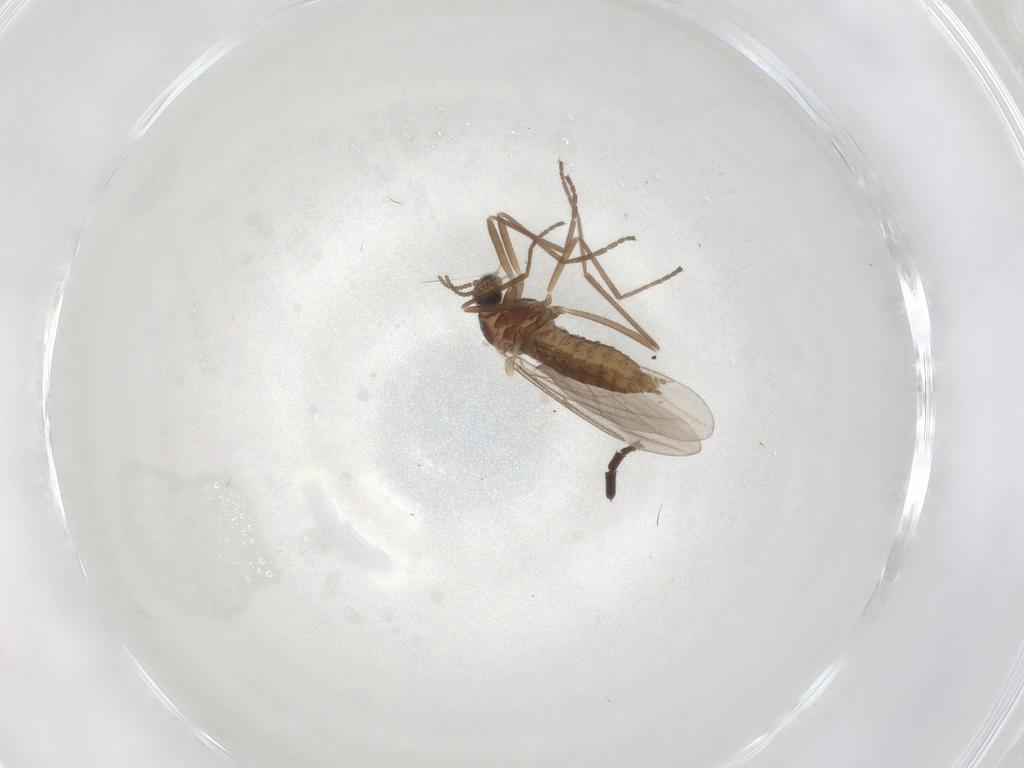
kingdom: Animalia
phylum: Arthropoda
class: Insecta
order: Diptera
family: Cecidomyiidae
